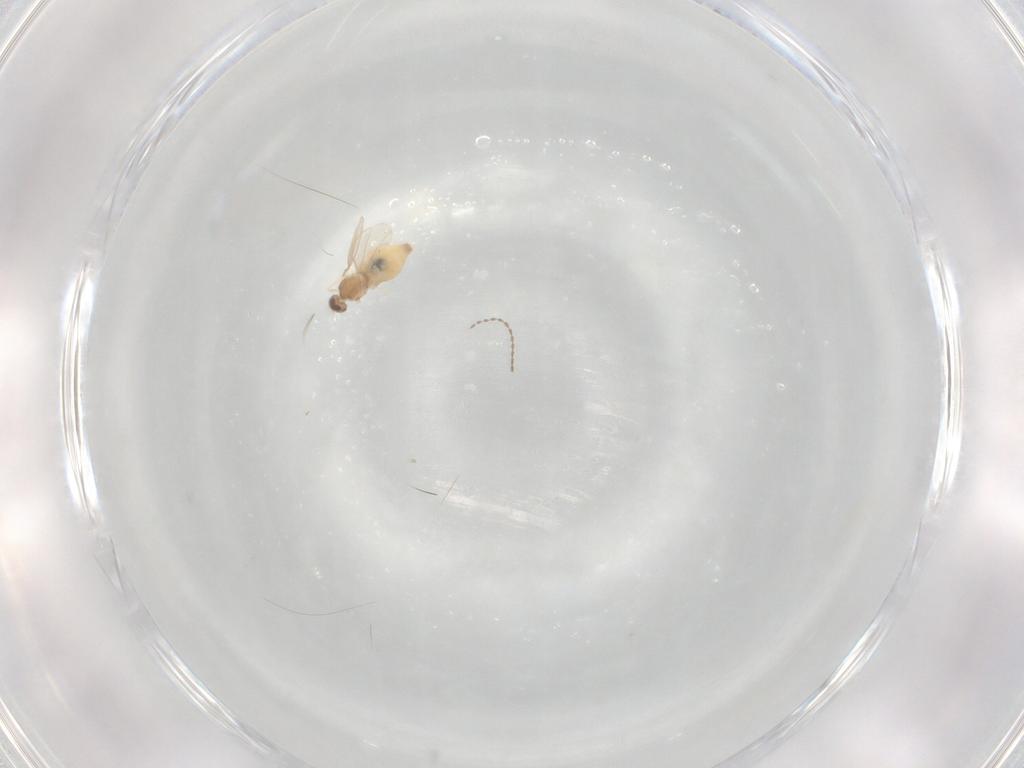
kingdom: Animalia
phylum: Arthropoda
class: Insecta
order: Diptera
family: Cecidomyiidae
